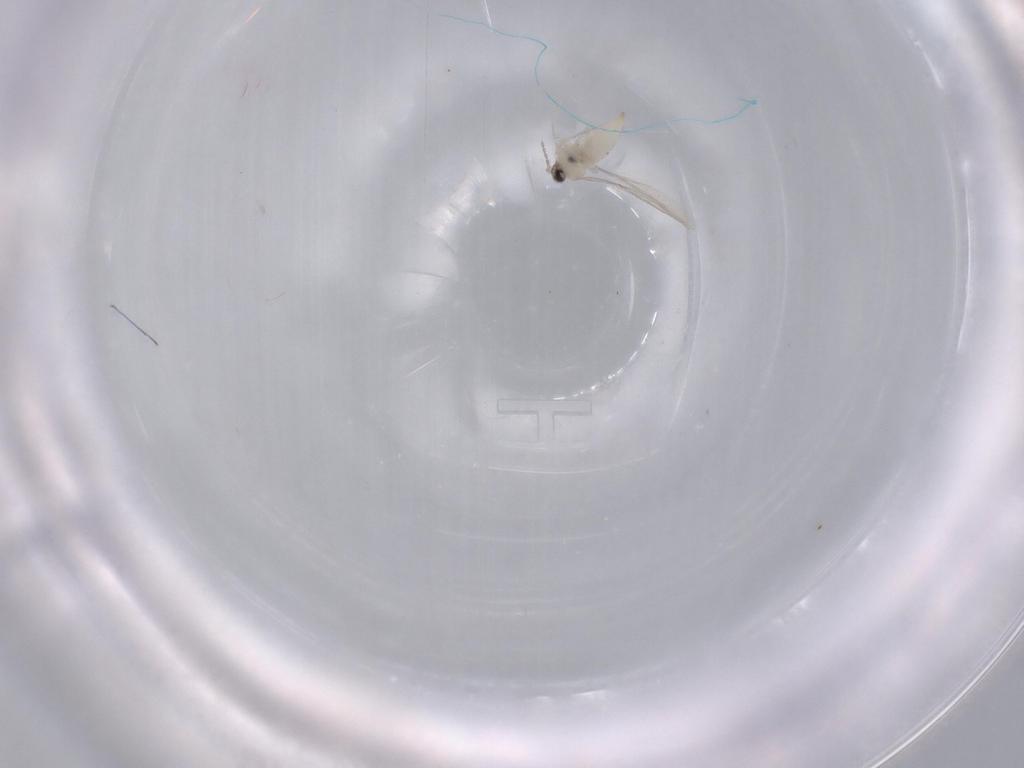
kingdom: Animalia
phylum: Arthropoda
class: Insecta
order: Diptera
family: Cecidomyiidae
